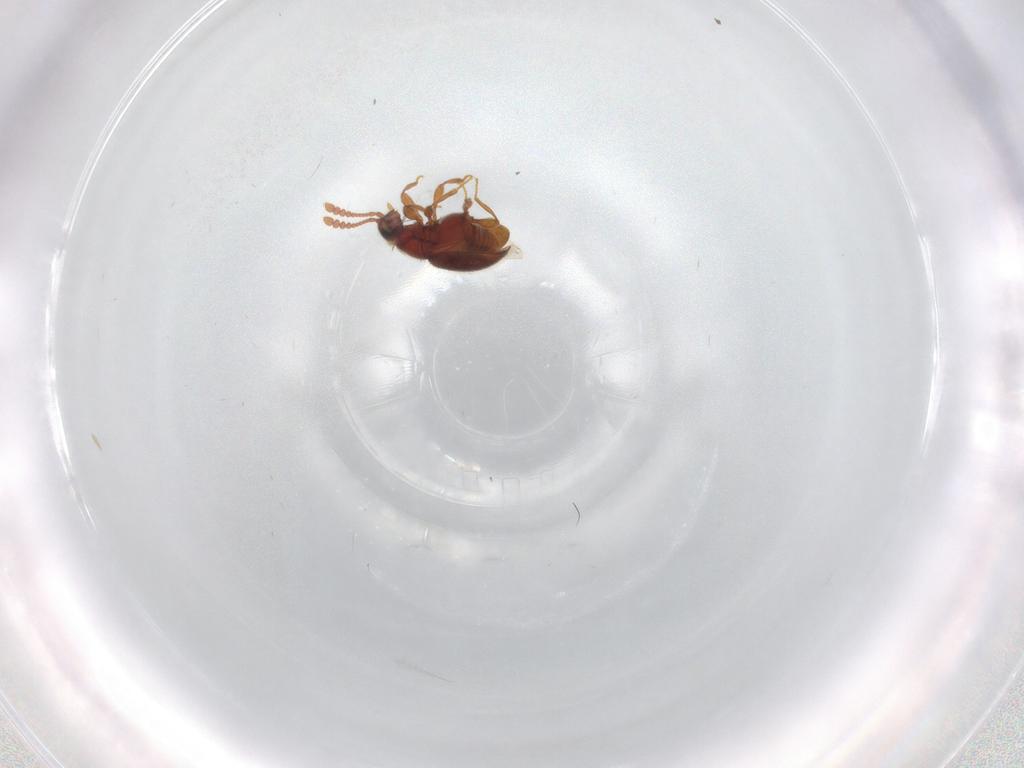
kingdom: Animalia
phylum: Arthropoda
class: Insecta
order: Coleoptera
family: Staphylinidae
